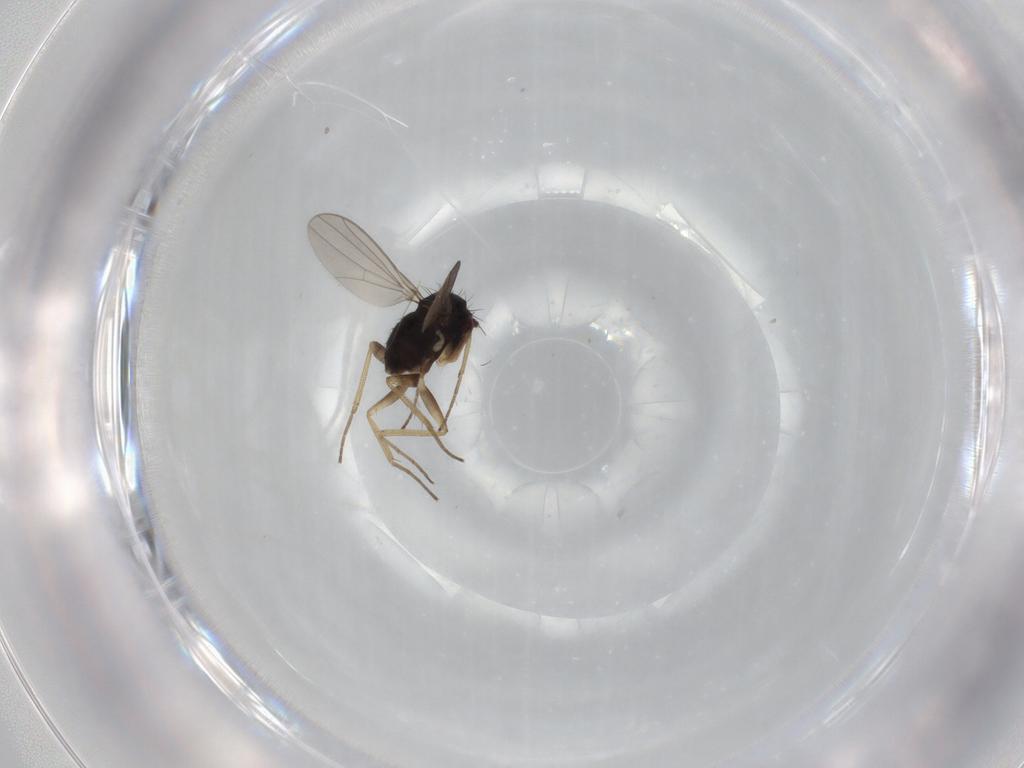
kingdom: Animalia
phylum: Arthropoda
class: Insecta
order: Diptera
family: Dolichopodidae
